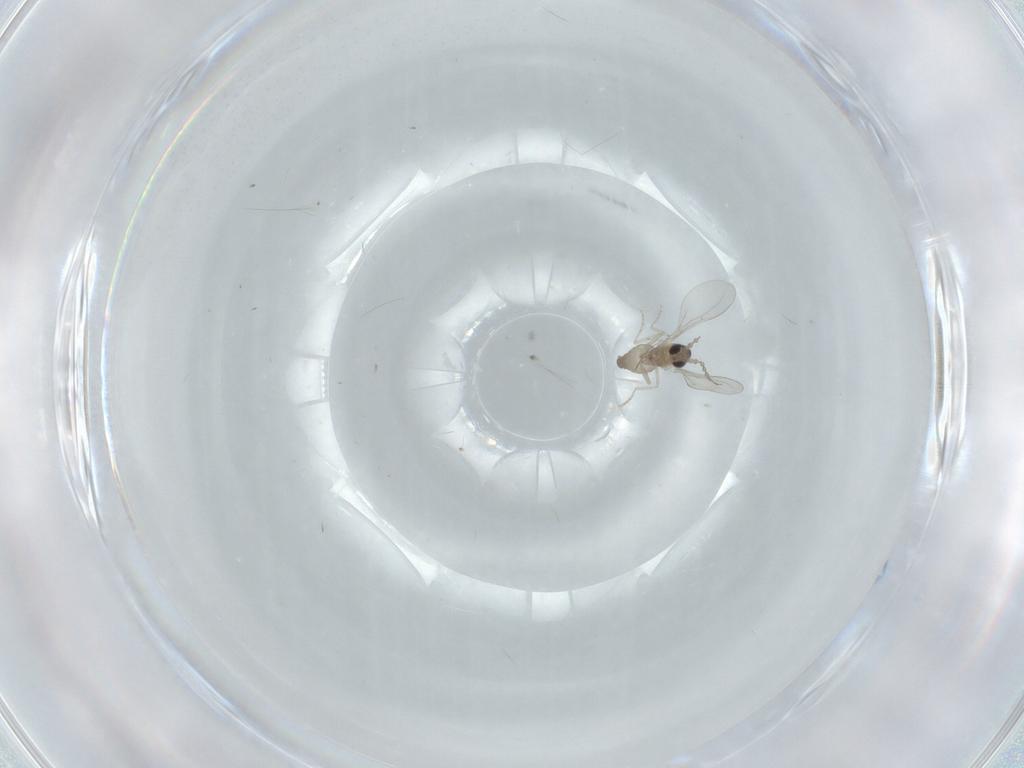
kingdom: Animalia
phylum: Arthropoda
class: Insecta
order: Diptera
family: Cecidomyiidae
